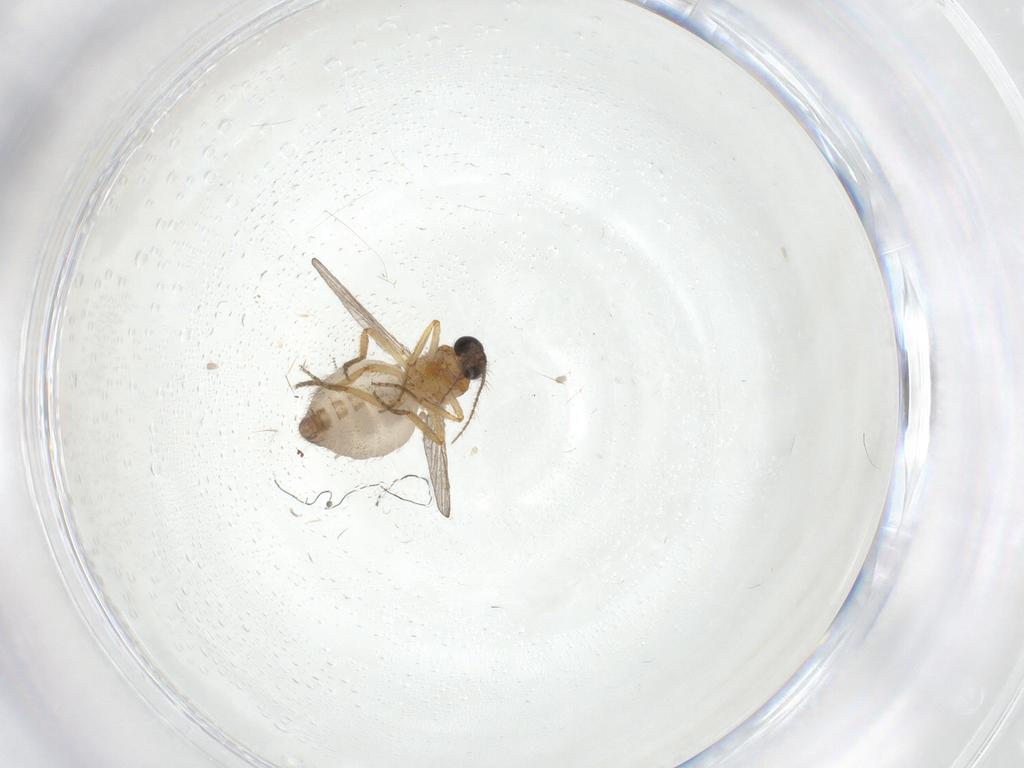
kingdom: Animalia
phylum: Arthropoda
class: Insecta
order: Diptera
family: Ceratopogonidae
